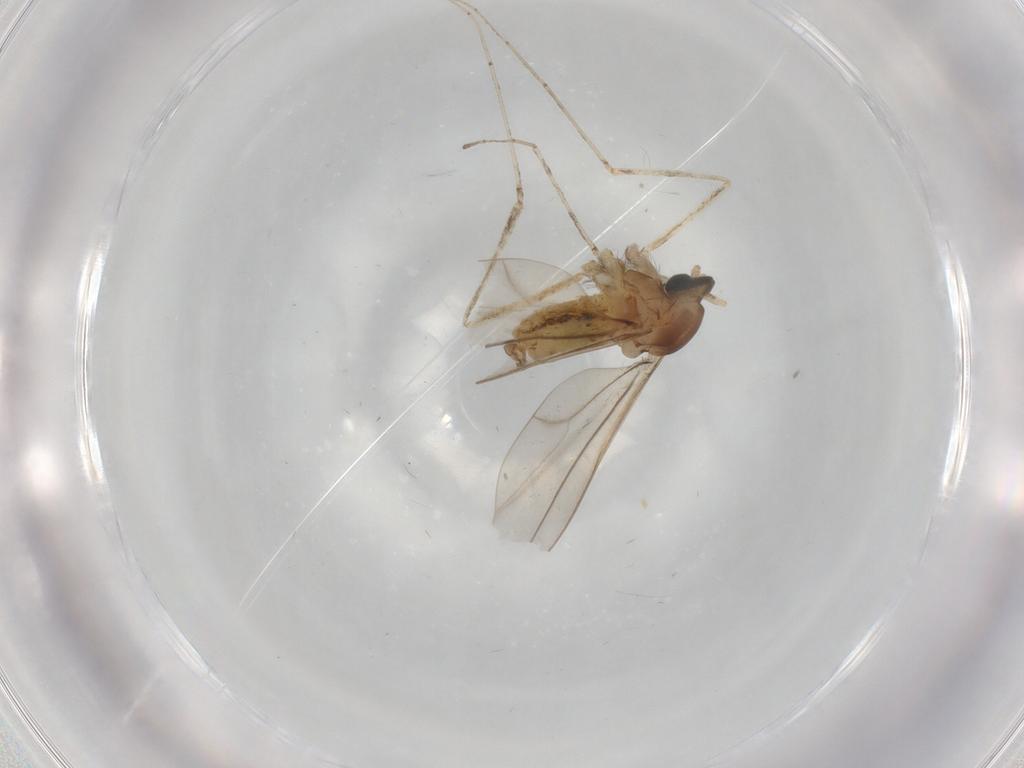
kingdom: Animalia
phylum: Arthropoda
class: Insecta
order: Diptera
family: Cecidomyiidae
